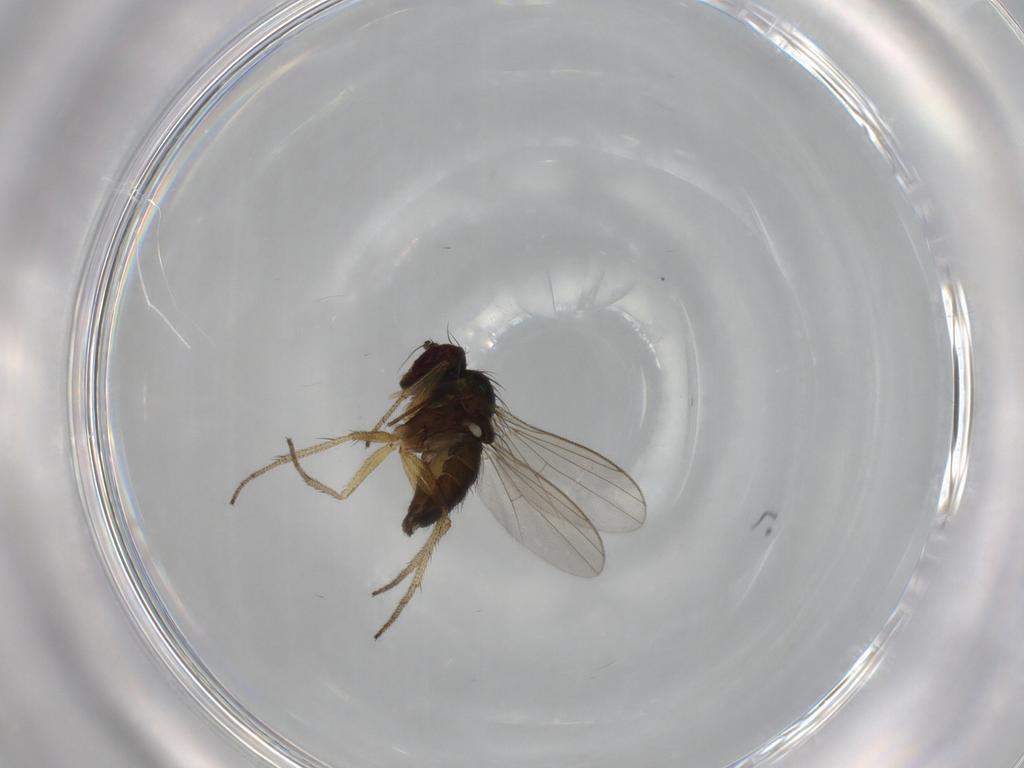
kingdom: Animalia
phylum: Arthropoda
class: Insecta
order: Diptera
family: Dolichopodidae
